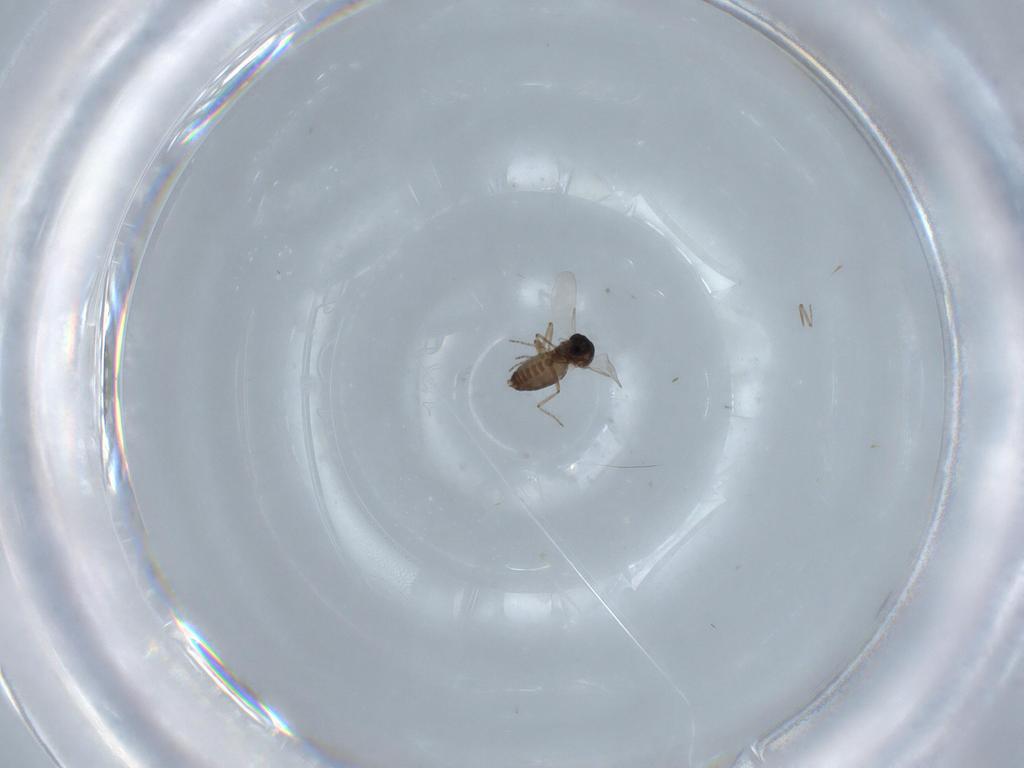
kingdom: Animalia
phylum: Arthropoda
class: Insecta
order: Diptera
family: Ceratopogonidae
